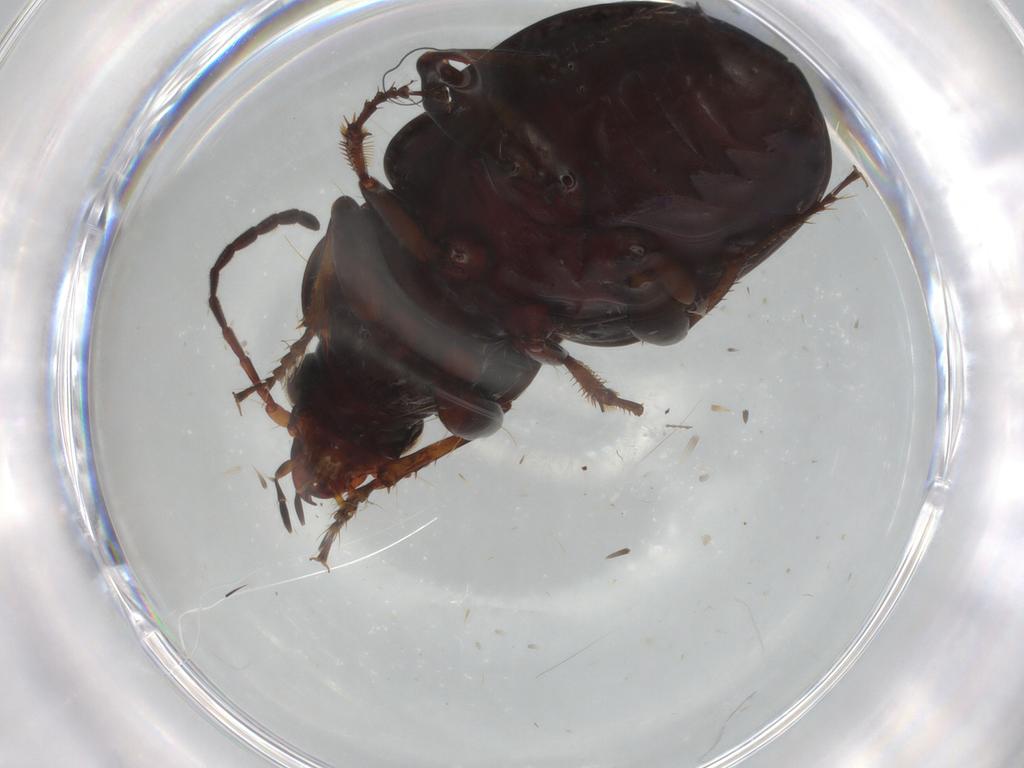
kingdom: Animalia
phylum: Arthropoda
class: Insecta
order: Coleoptera
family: Carabidae
